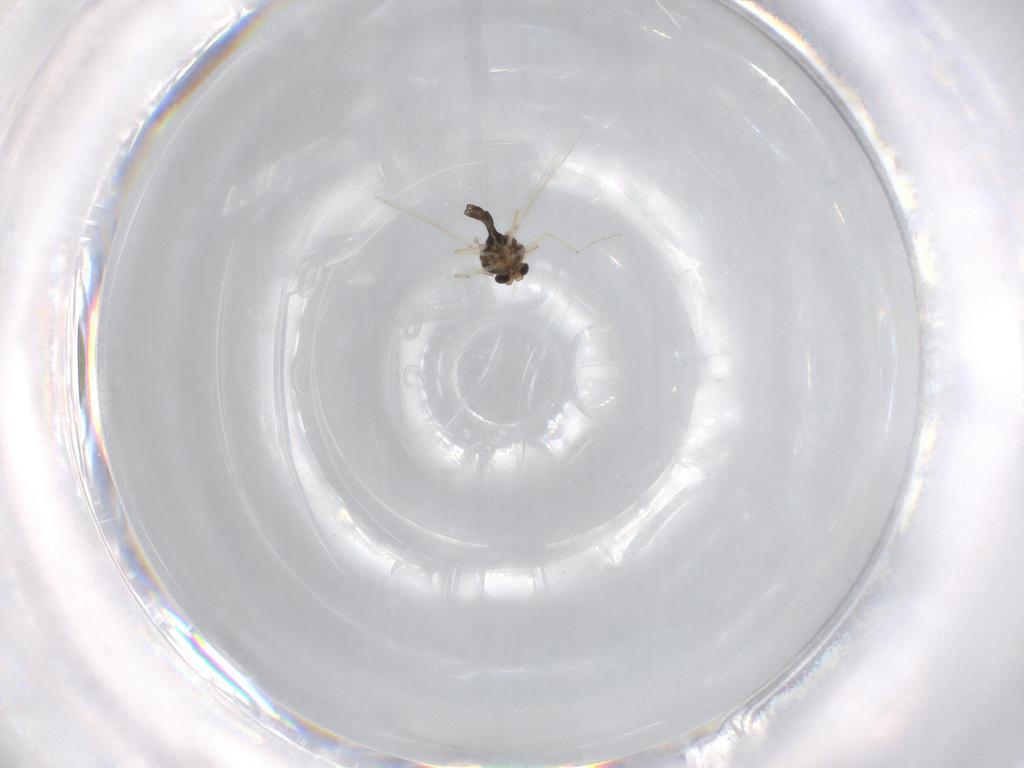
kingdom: Animalia
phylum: Arthropoda
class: Insecta
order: Diptera
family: Chironomidae
